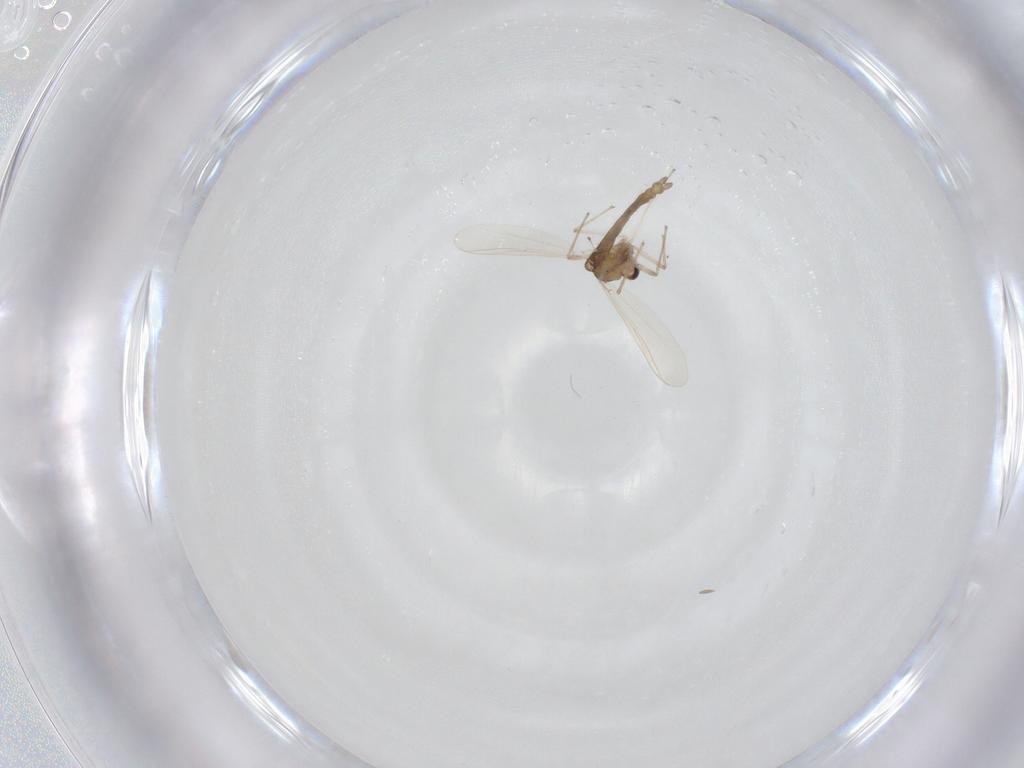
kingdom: Animalia
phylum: Arthropoda
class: Insecta
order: Diptera
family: Chironomidae
